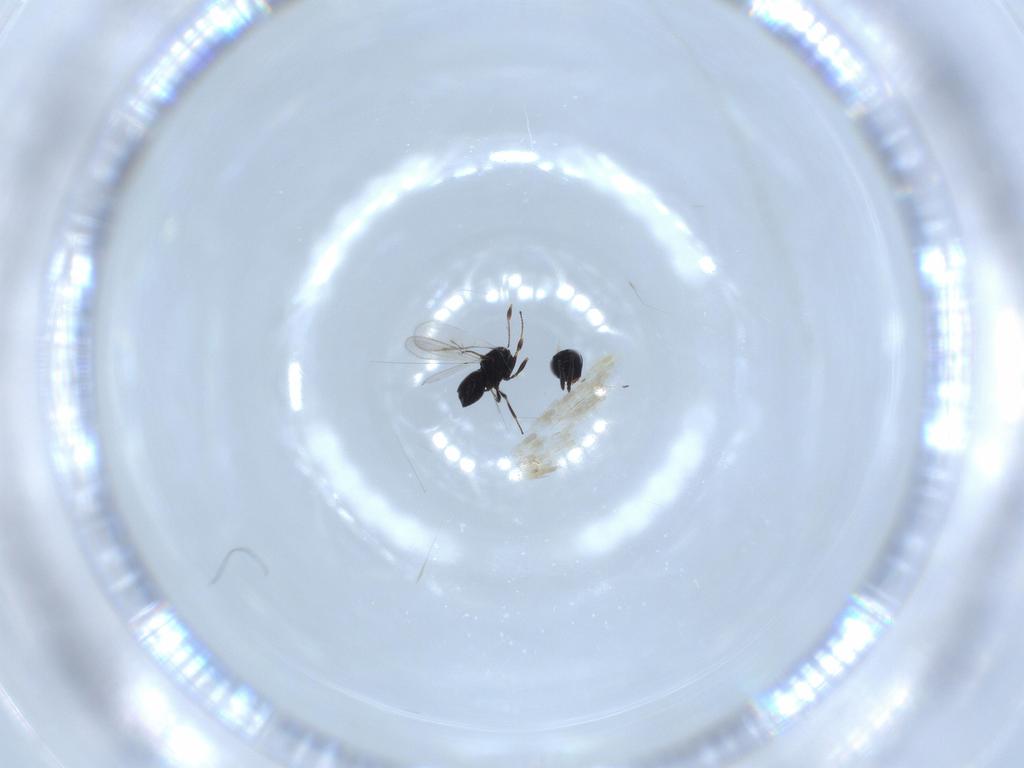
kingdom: Animalia
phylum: Arthropoda
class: Insecta
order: Hymenoptera
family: Scelionidae
